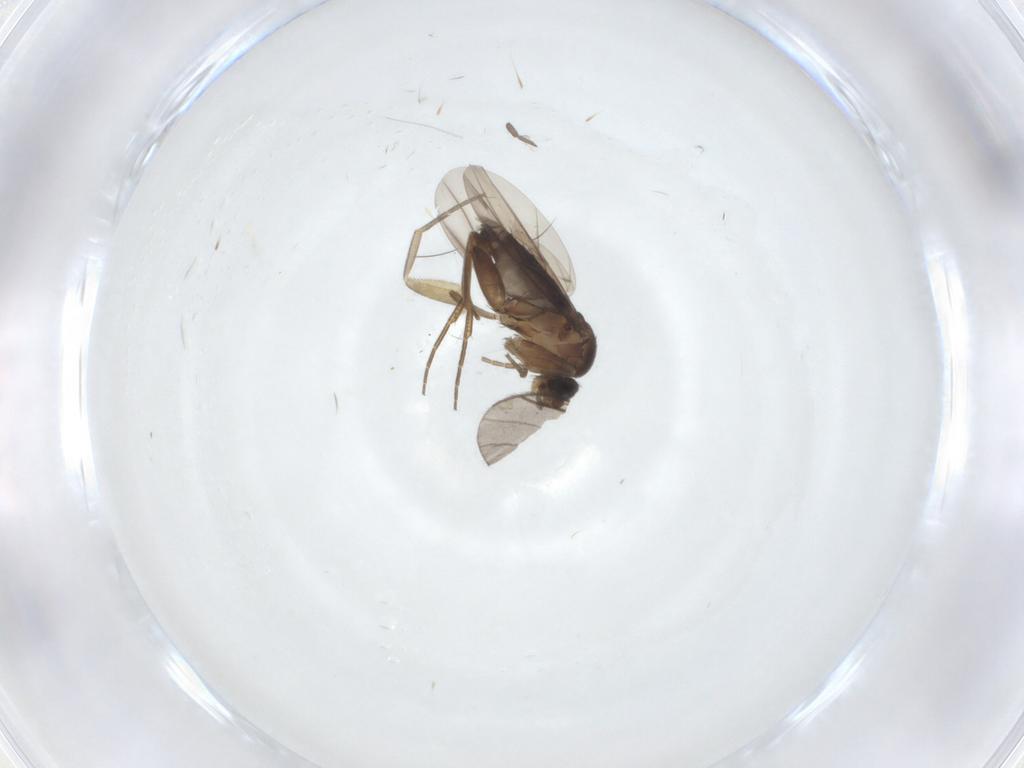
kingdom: Animalia
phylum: Arthropoda
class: Insecta
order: Diptera
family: Phoridae
